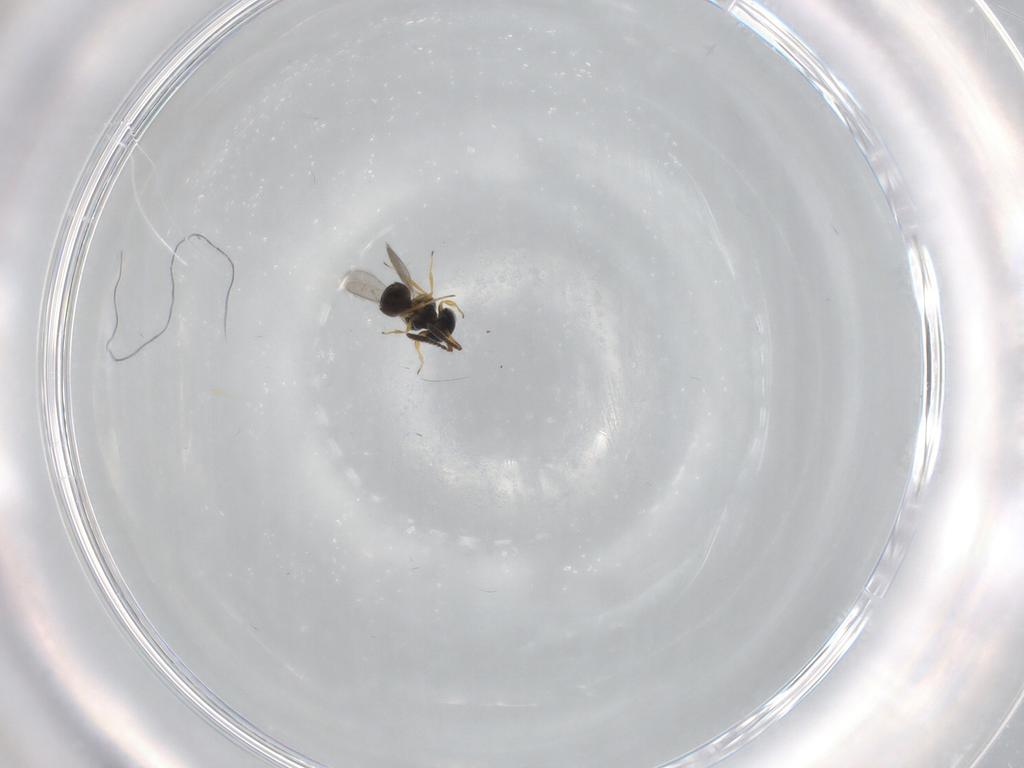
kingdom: Animalia
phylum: Arthropoda
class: Insecta
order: Hymenoptera
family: Scelionidae
